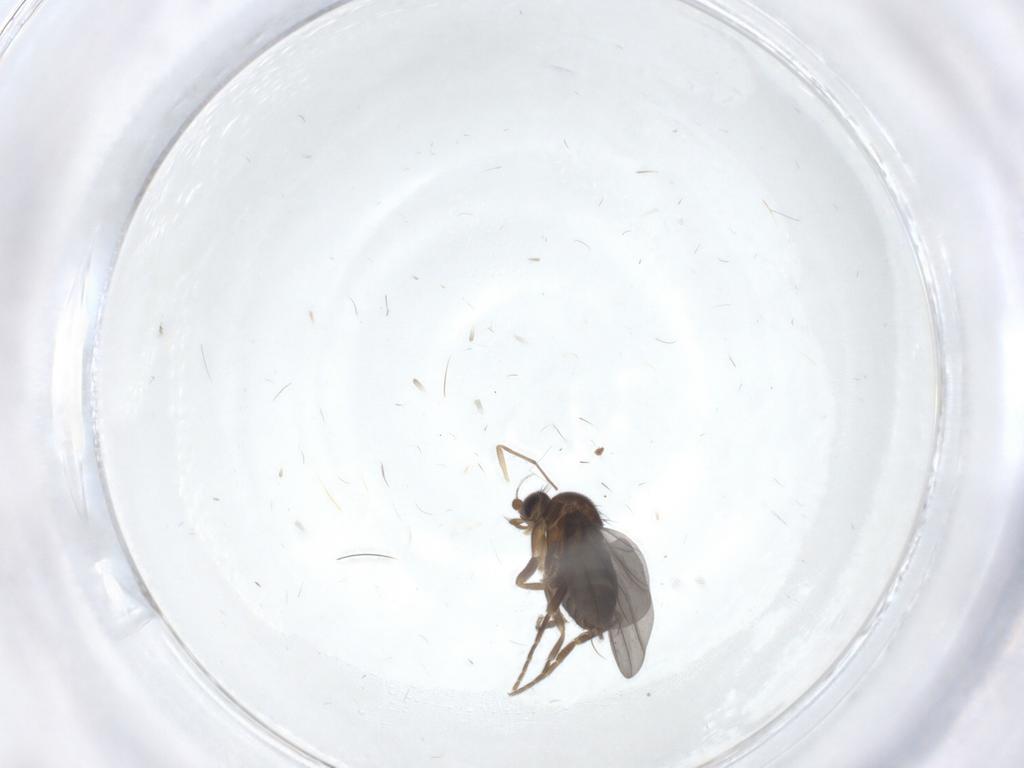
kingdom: Animalia
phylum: Arthropoda
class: Insecta
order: Diptera
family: Phoridae
